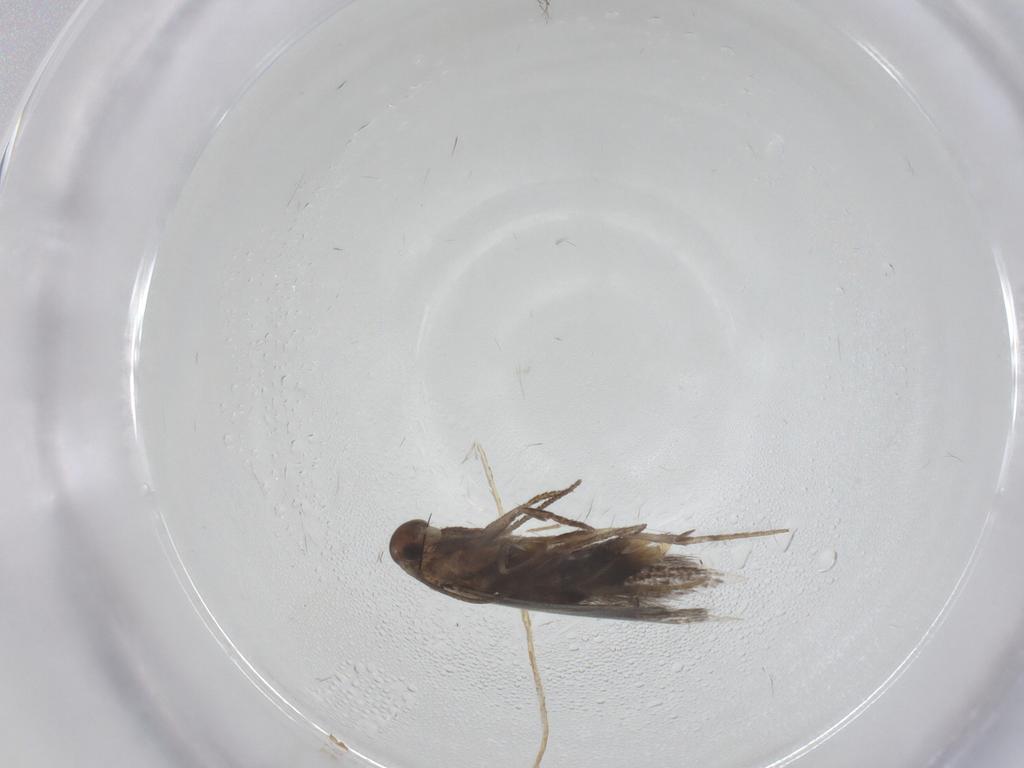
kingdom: Animalia
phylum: Arthropoda
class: Insecta
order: Lepidoptera
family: Elachistidae
